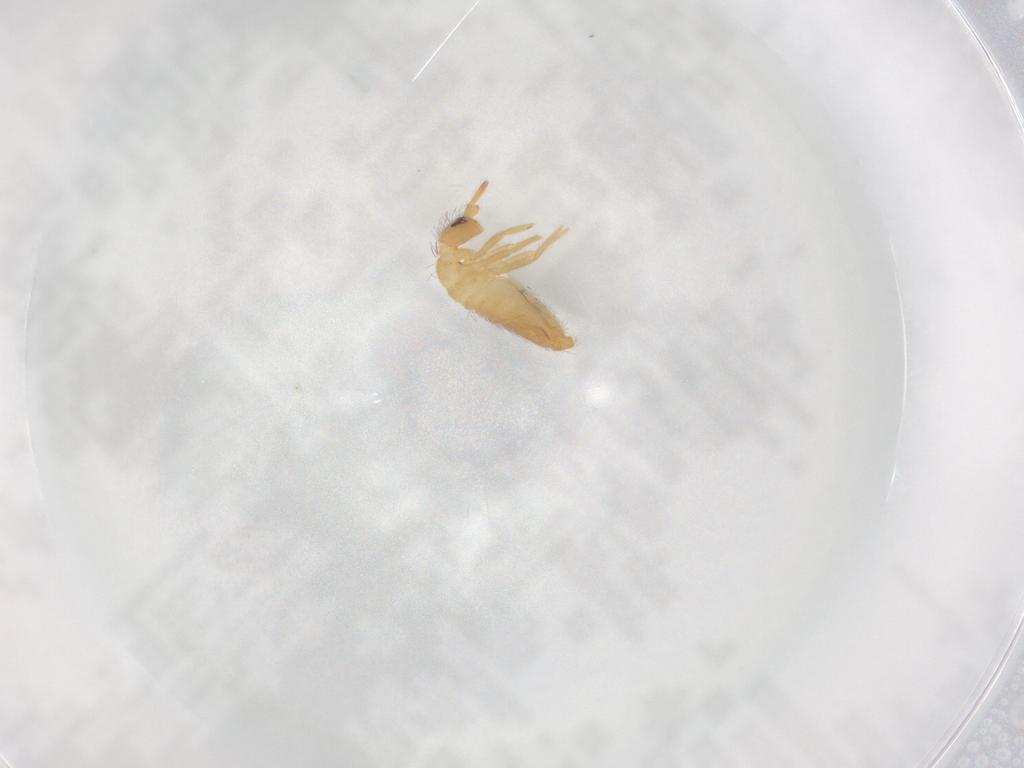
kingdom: Animalia
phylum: Arthropoda
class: Collembola
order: Entomobryomorpha
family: Entomobryidae
